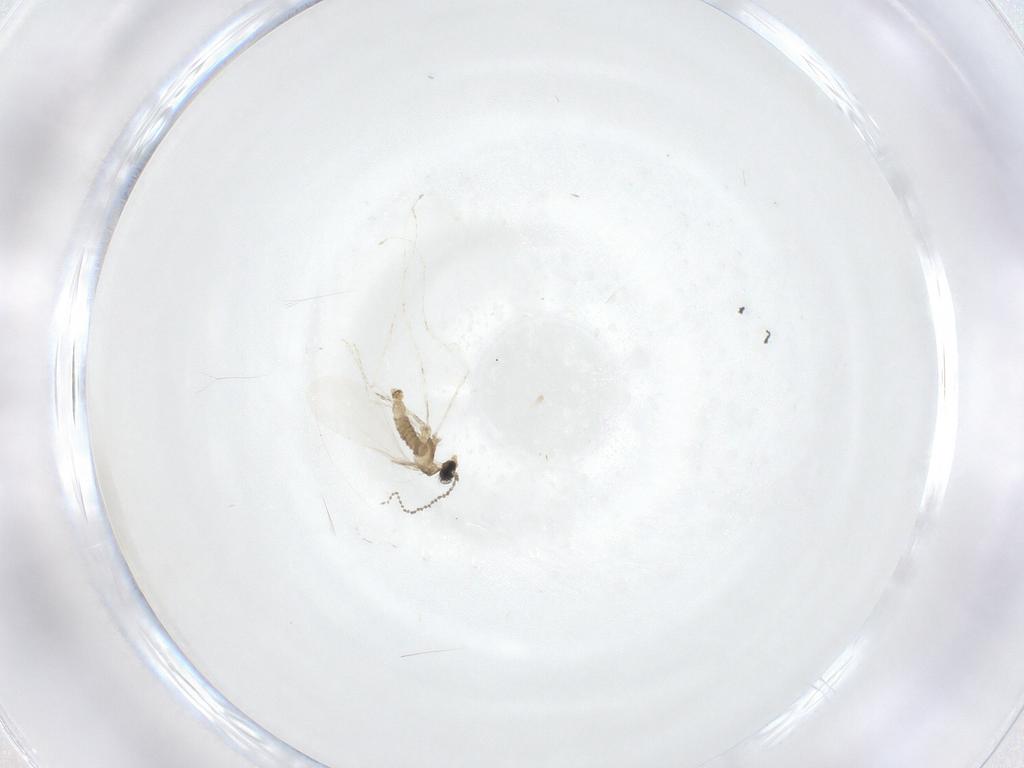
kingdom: Animalia
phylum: Arthropoda
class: Insecta
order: Diptera
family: Cecidomyiidae
